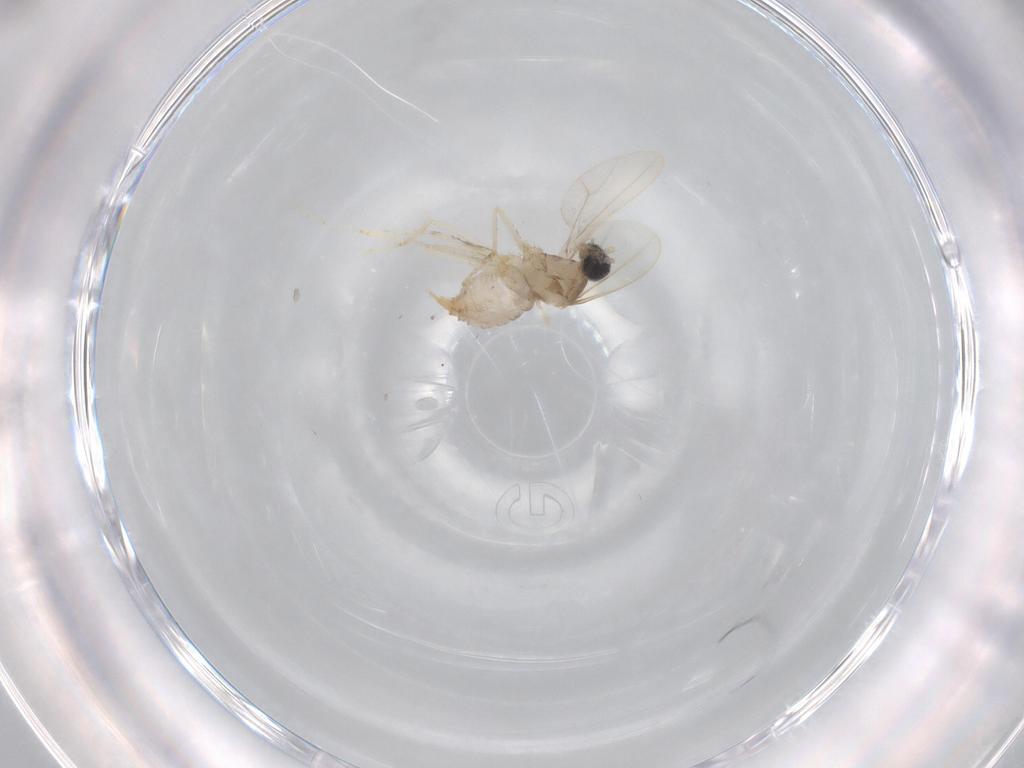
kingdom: Animalia
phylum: Arthropoda
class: Insecta
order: Diptera
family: Cecidomyiidae
